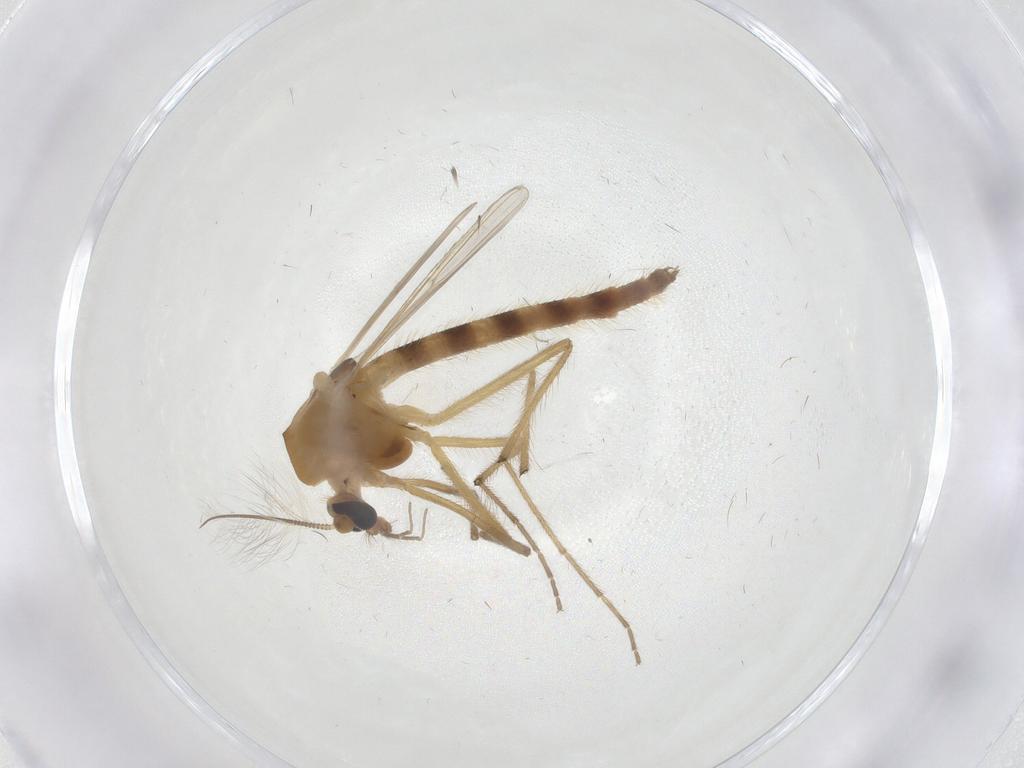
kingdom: Animalia
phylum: Arthropoda
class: Insecta
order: Diptera
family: Chironomidae
